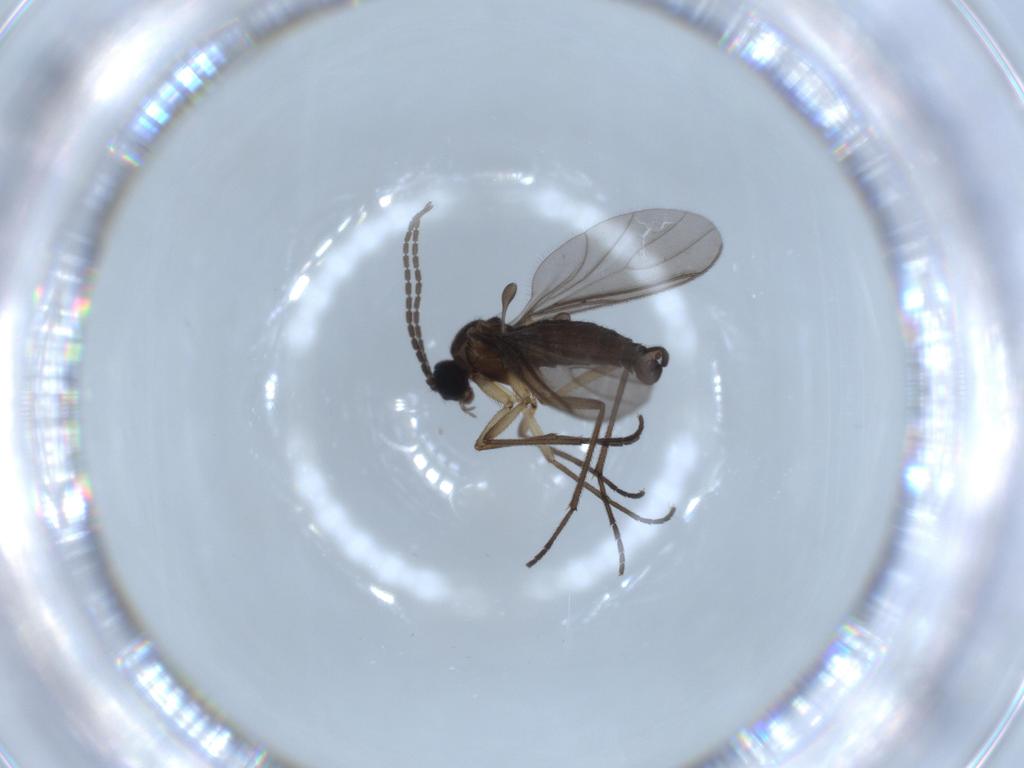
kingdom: Animalia
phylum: Arthropoda
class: Insecta
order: Diptera
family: Sciaridae
